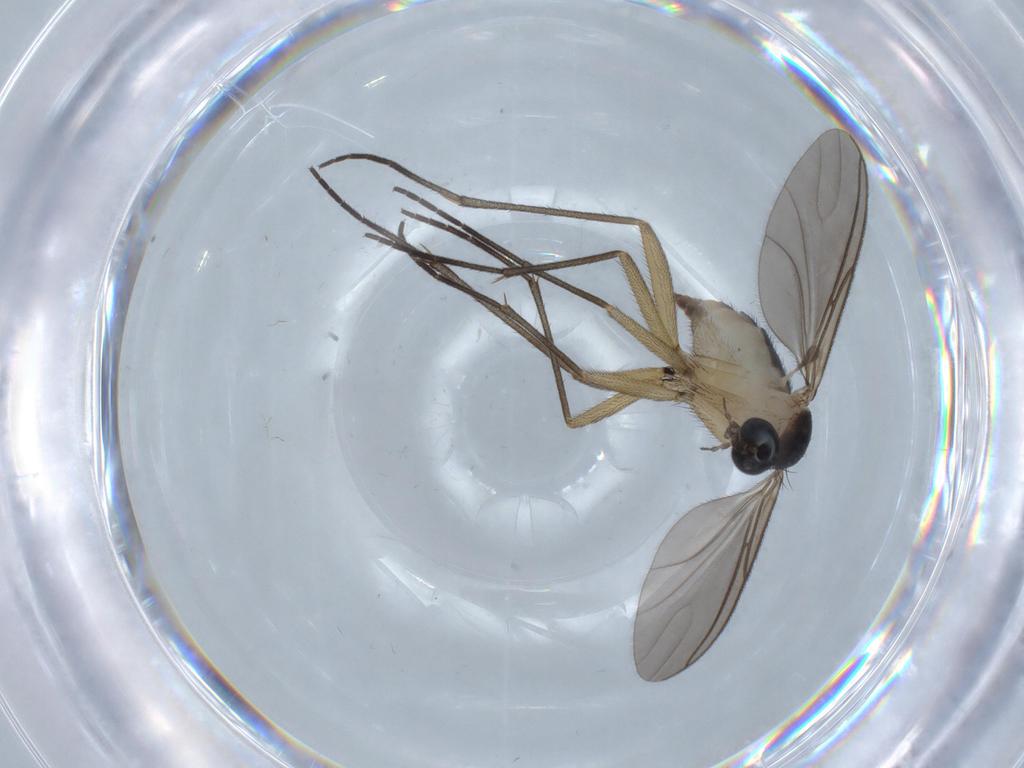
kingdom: Animalia
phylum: Arthropoda
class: Insecta
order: Diptera
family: Sciaridae
